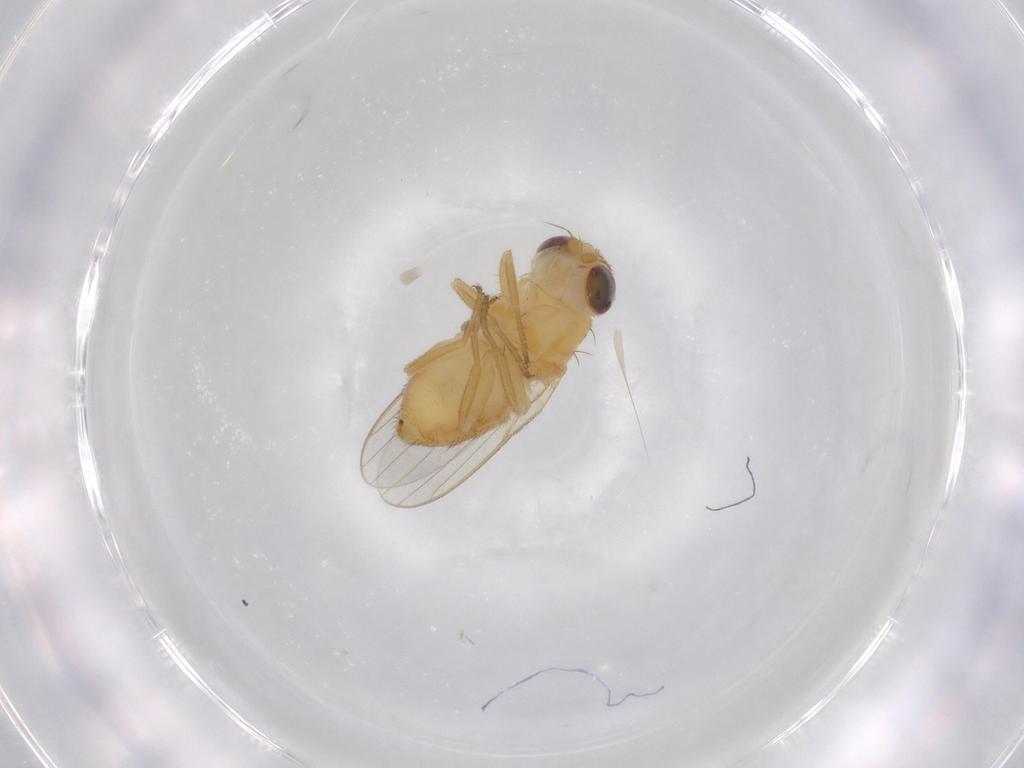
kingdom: Animalia
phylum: Arthropoda
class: Insecta
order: Diptera
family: Chloropidae
